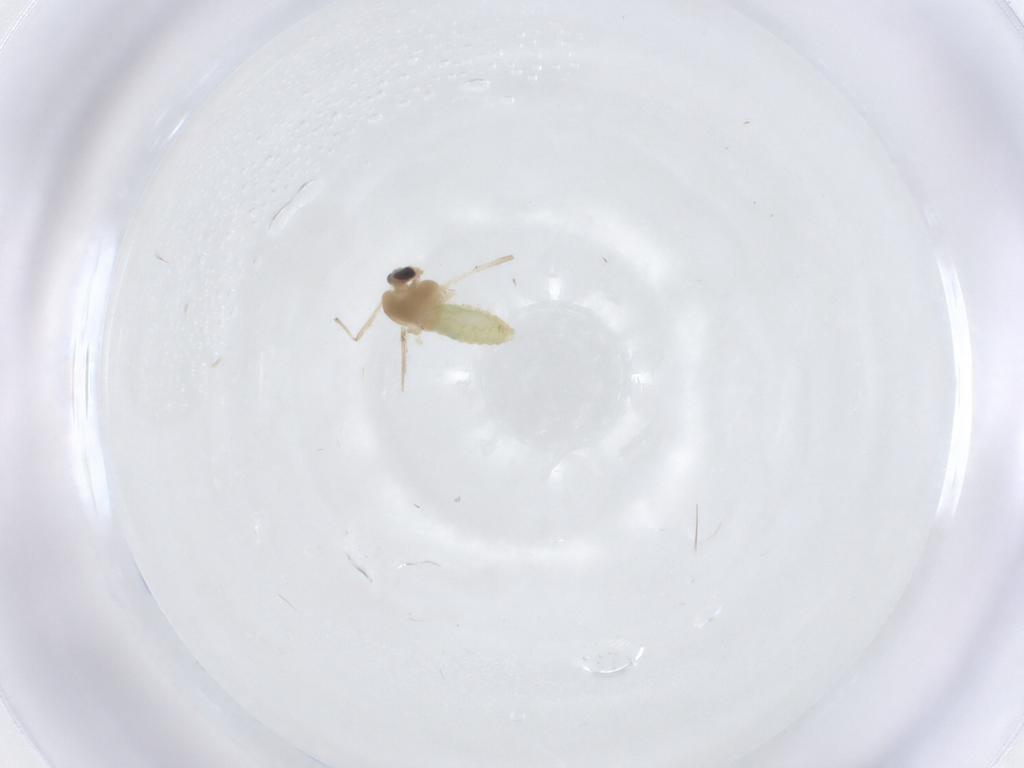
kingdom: Animalia
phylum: Arthropoda
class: Insecta
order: Diptera
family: Chironomidae
